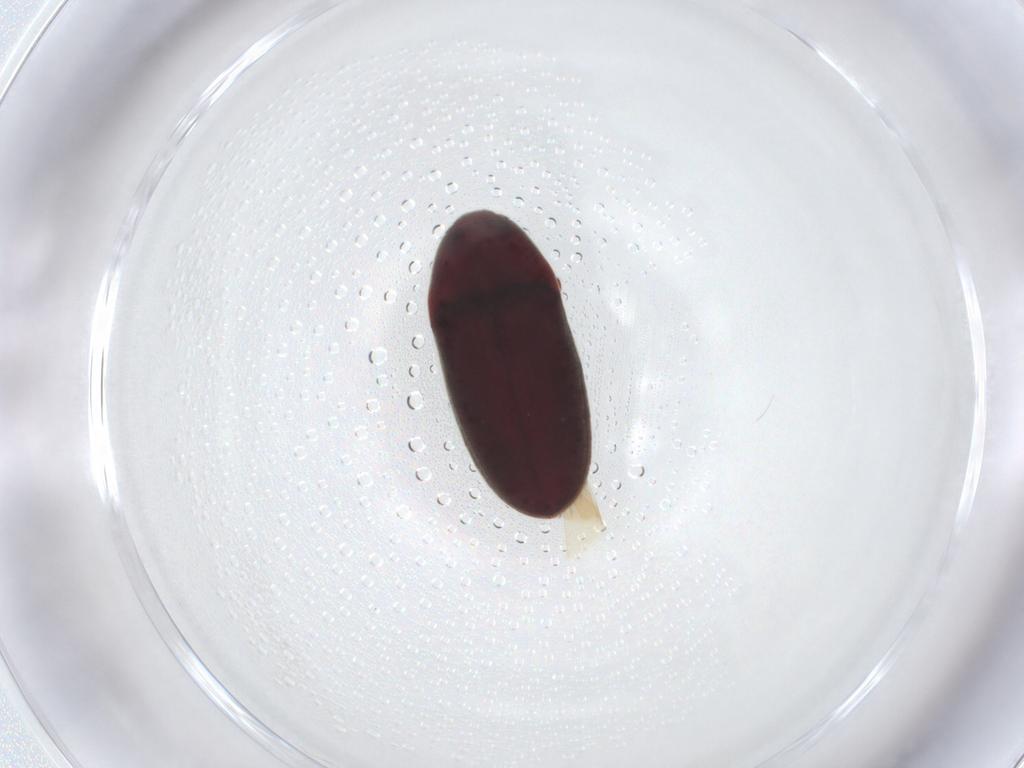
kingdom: Animalia
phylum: Arthropoda
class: Insecta
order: Coleoptera
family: Throscidae
